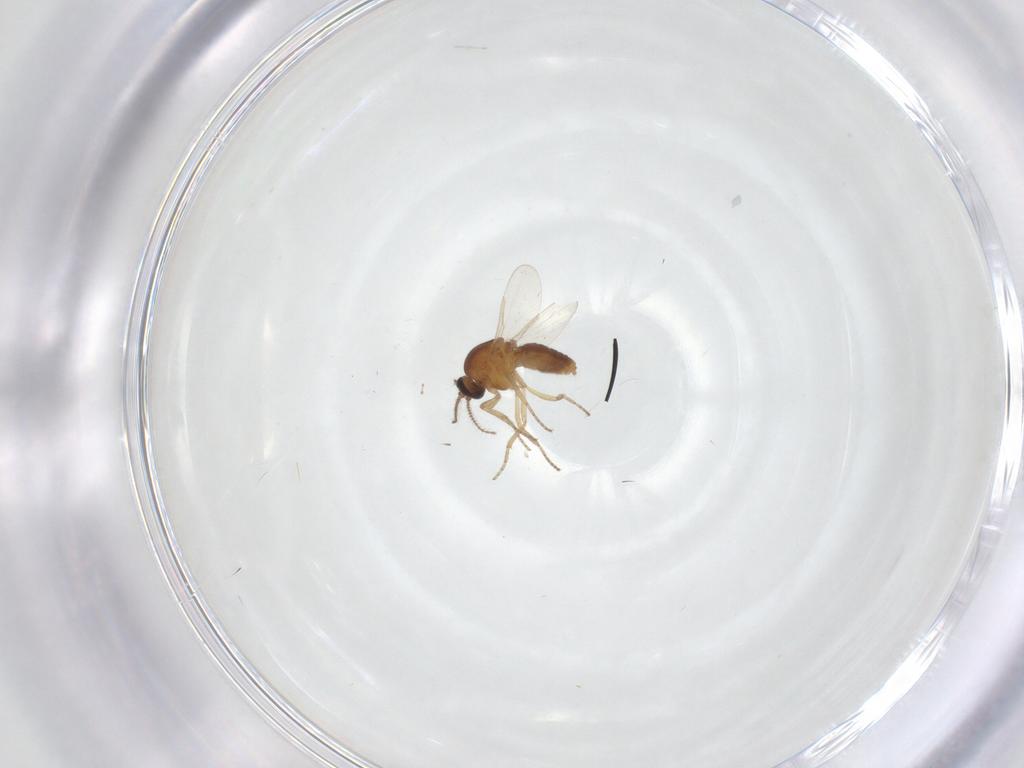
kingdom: Animalia
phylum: Arthropoda
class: Insecta
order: Diptera
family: Ceratopogonidae
